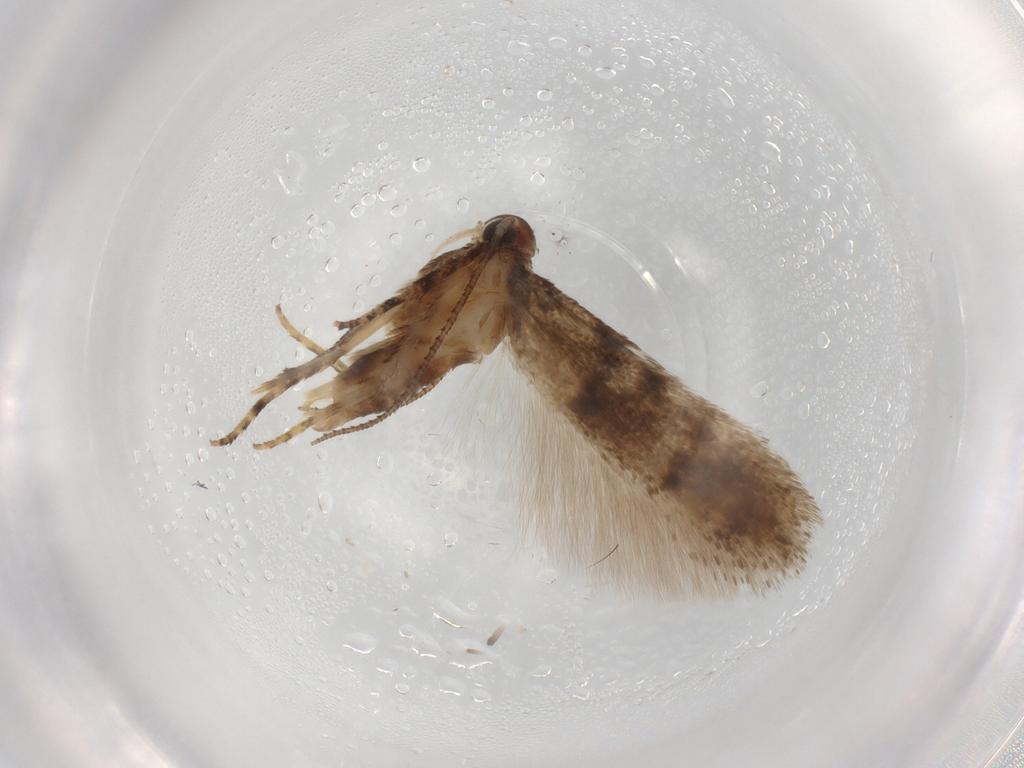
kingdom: Animalia
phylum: Arthropoda
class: Insecta
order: Lepidoptera
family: Gelechiidae
